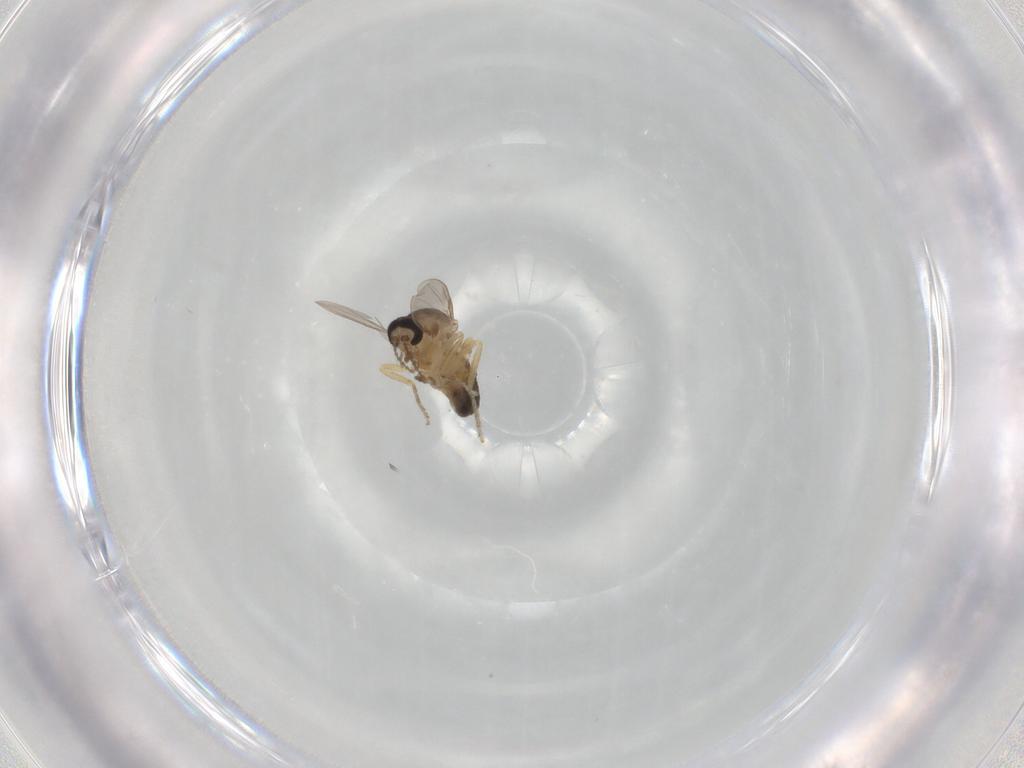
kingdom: Animalia
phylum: Arthropoda
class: Insecta
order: Diptera
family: Ceratopogonidae
